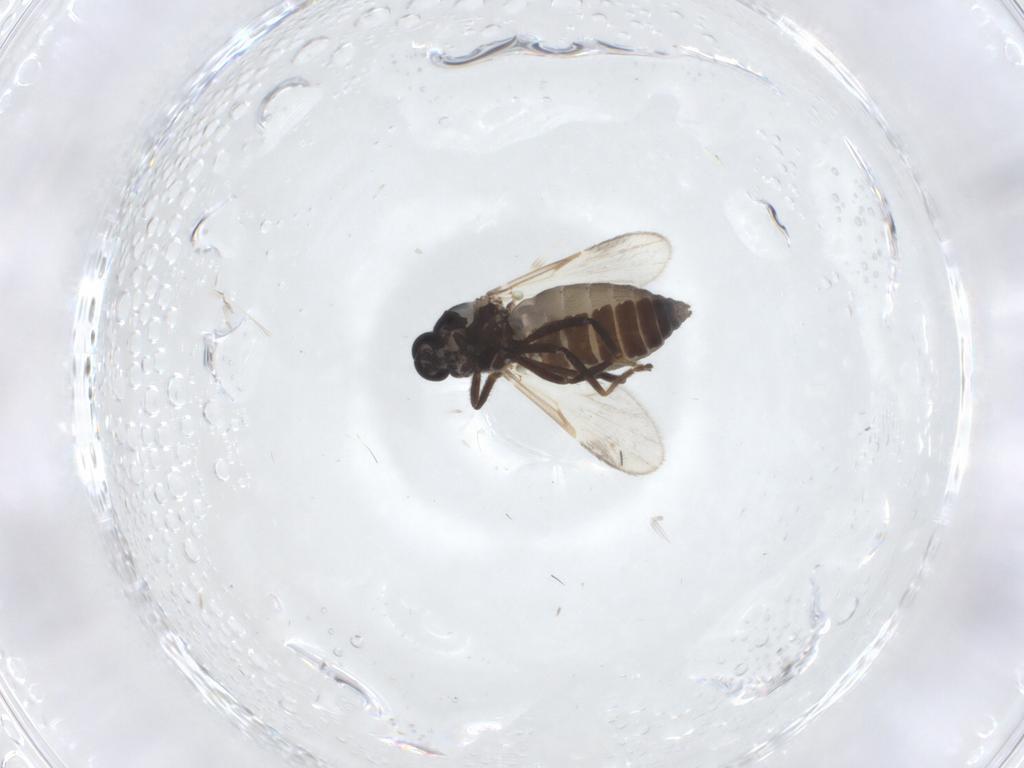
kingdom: Animalia
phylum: Arthropoda
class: Insecta
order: Diptera
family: Ceratopogonidae
